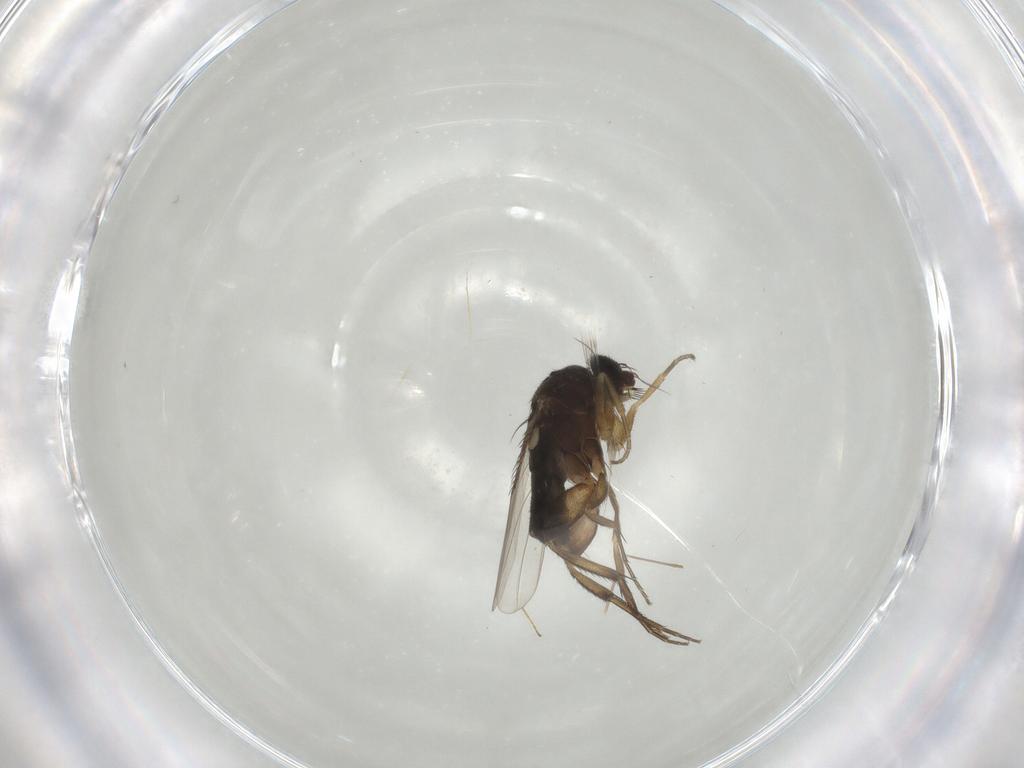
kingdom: Animalia
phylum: Arthropoda
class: Insecta
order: Diptera
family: Phoridae
